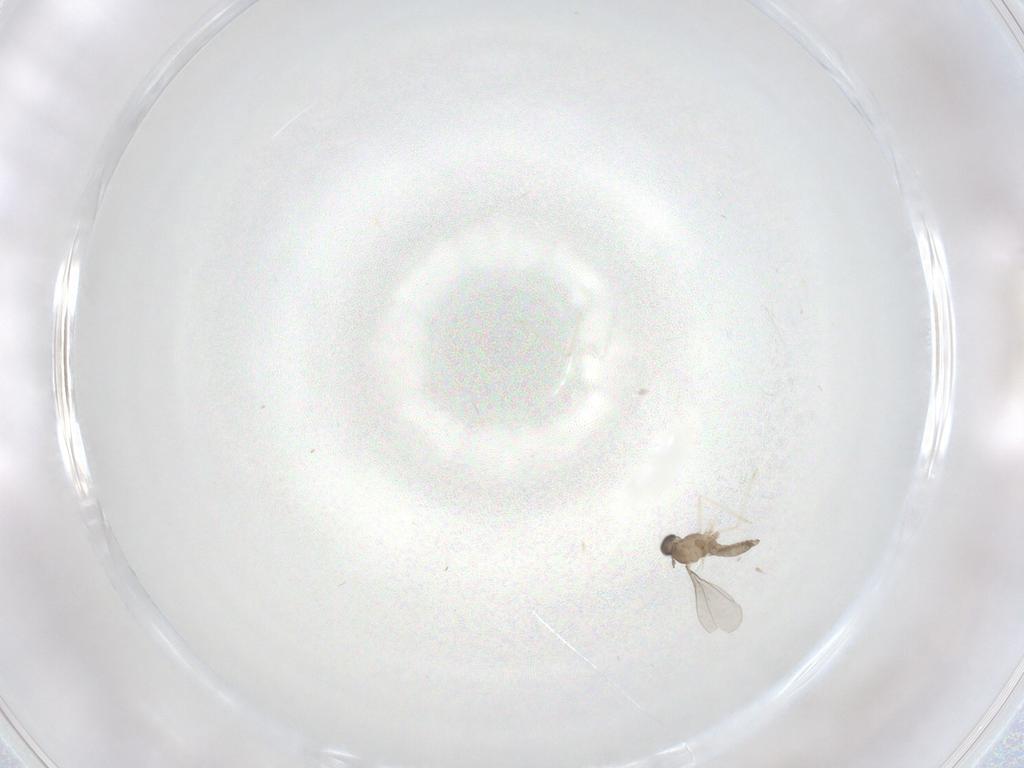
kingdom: Animalia
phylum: Arthropoda
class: Insecta
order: Diptera
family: Limoniidae
